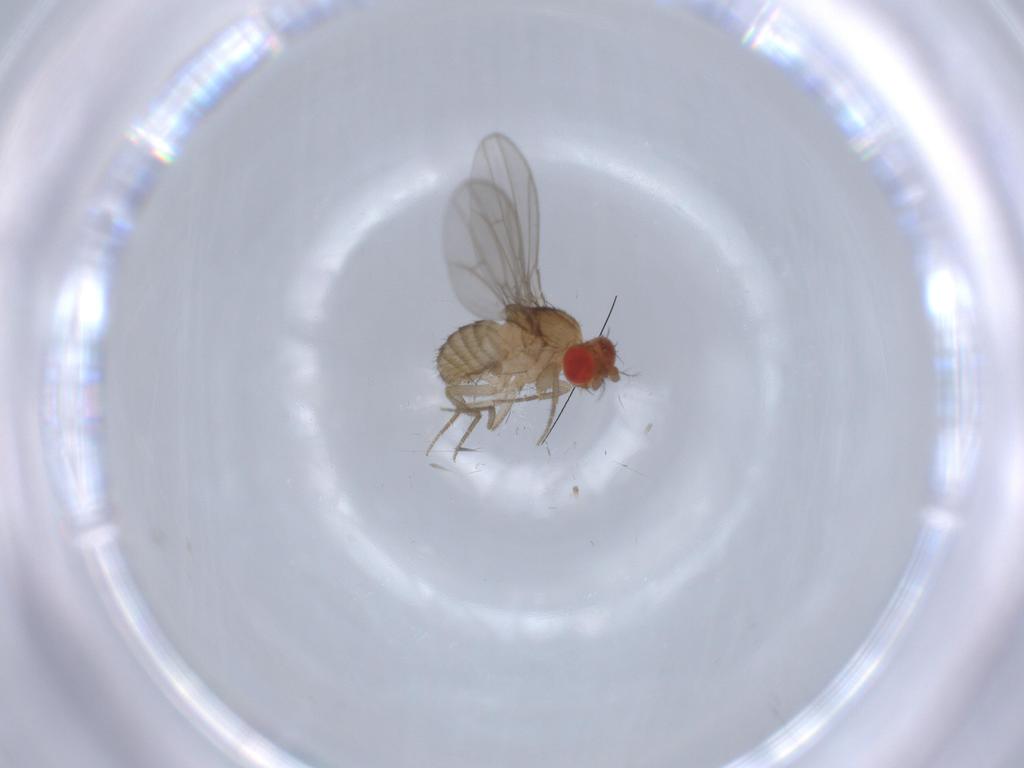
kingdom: Animalia
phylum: Arthropoda
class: Insecta
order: Diptera
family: Drosophilidae
